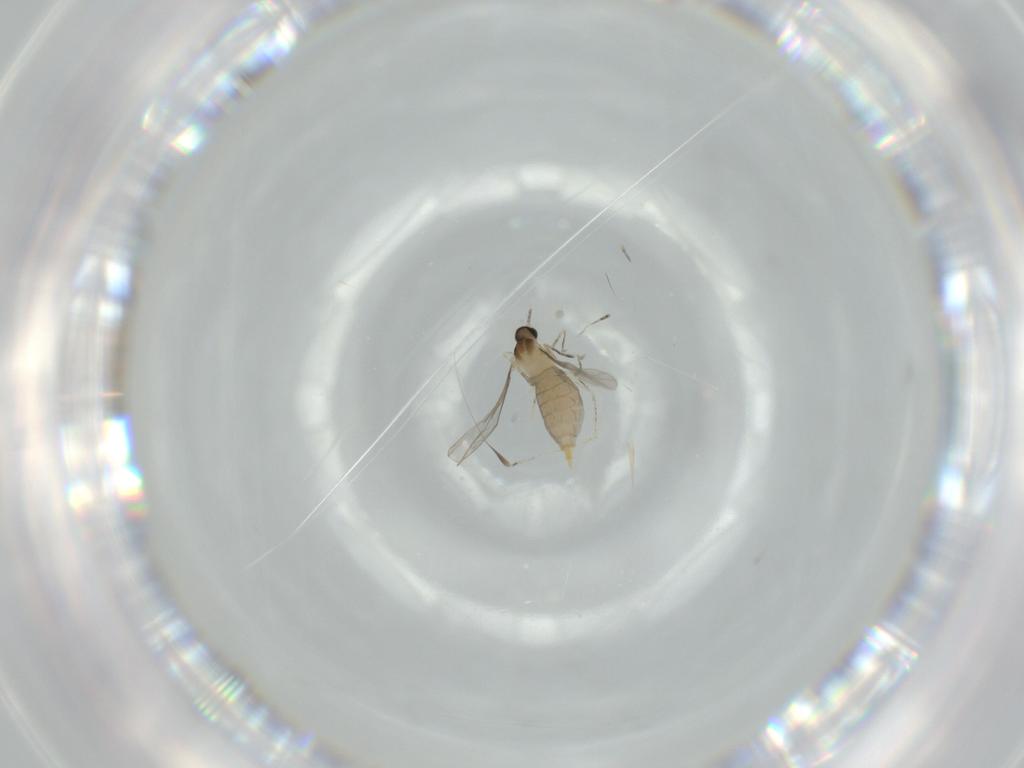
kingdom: Animalia
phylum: Arthropoda
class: Insecta
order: Diptera
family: Cecidomyiidae
